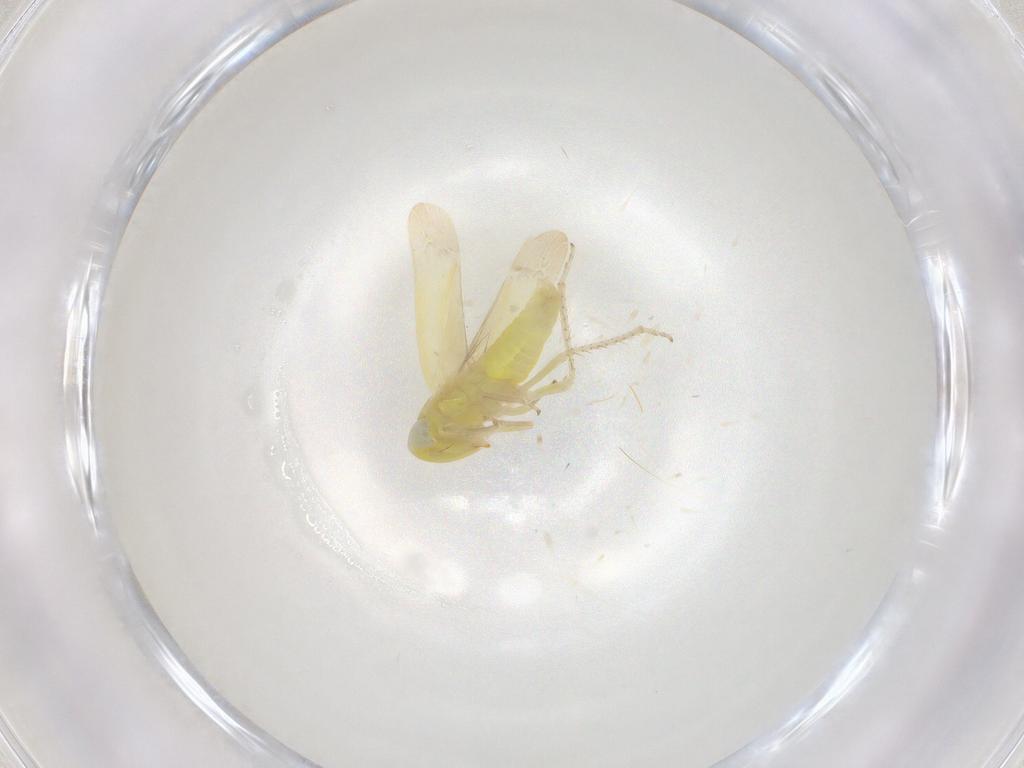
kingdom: Animalia
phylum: Arthropoda
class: Insecta
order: Hemiptera
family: Cicadellidae
